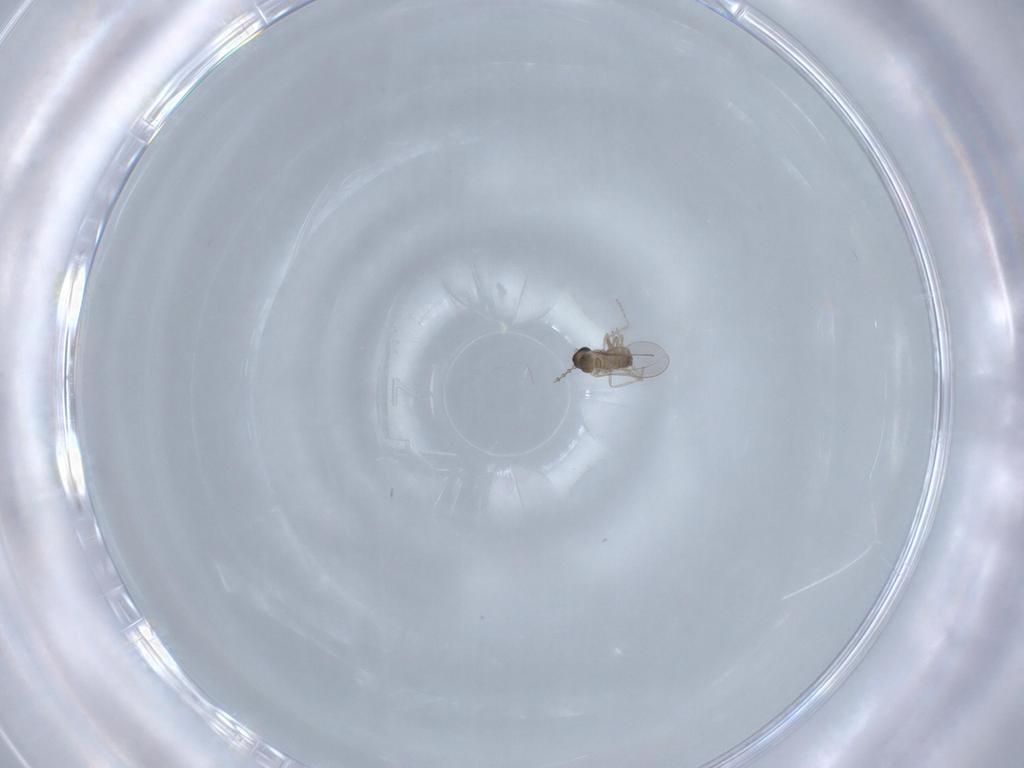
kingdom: Animalia
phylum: Arthropoda
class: Insecta
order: Diptera
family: Cecidomyiidae
